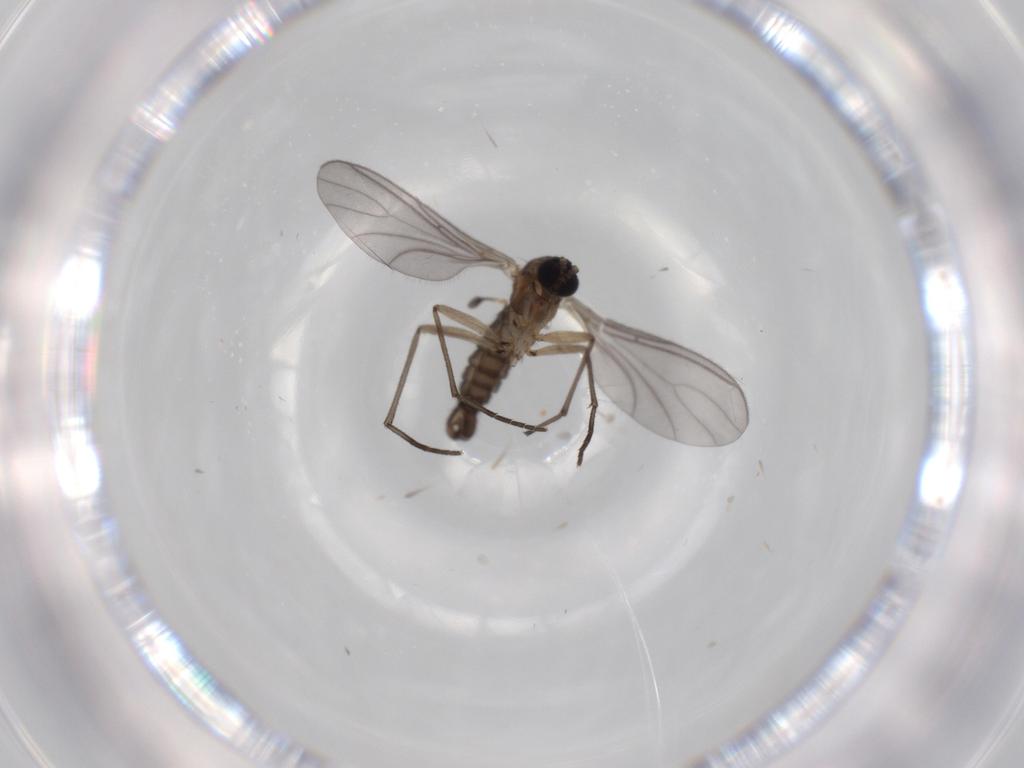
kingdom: Animalia
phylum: Arthropoda
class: Insecta
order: Diptera
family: Sciaridae
